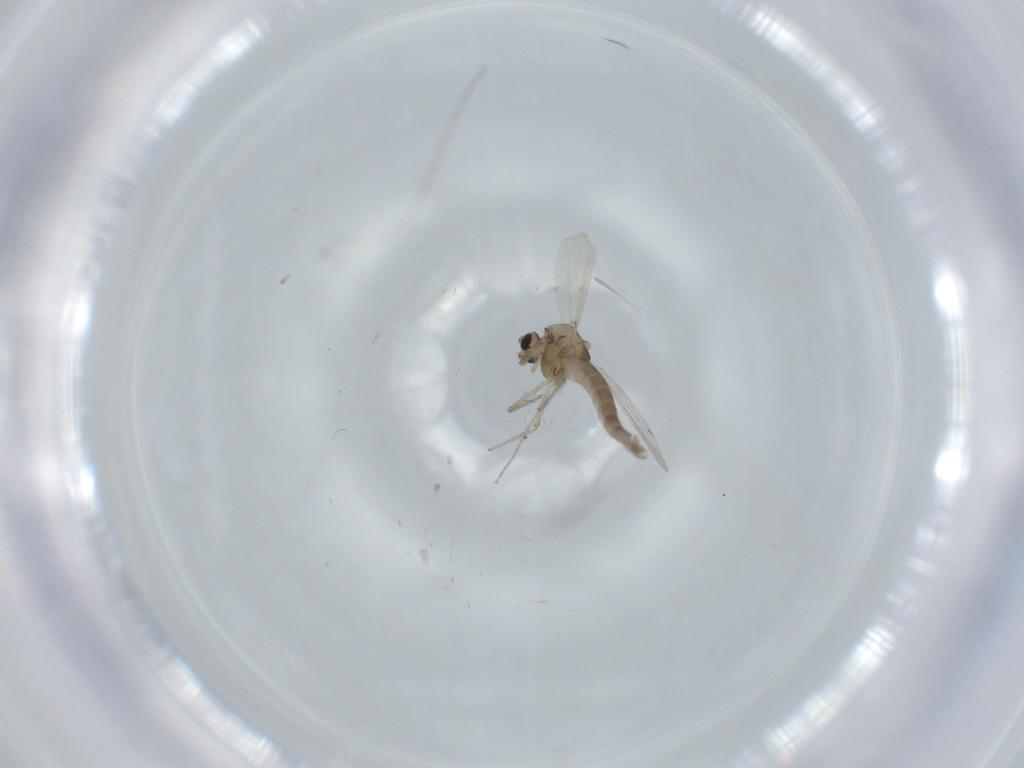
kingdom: Animalia
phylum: Arthropoda
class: Insecta
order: Diptera
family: Chironomidae
